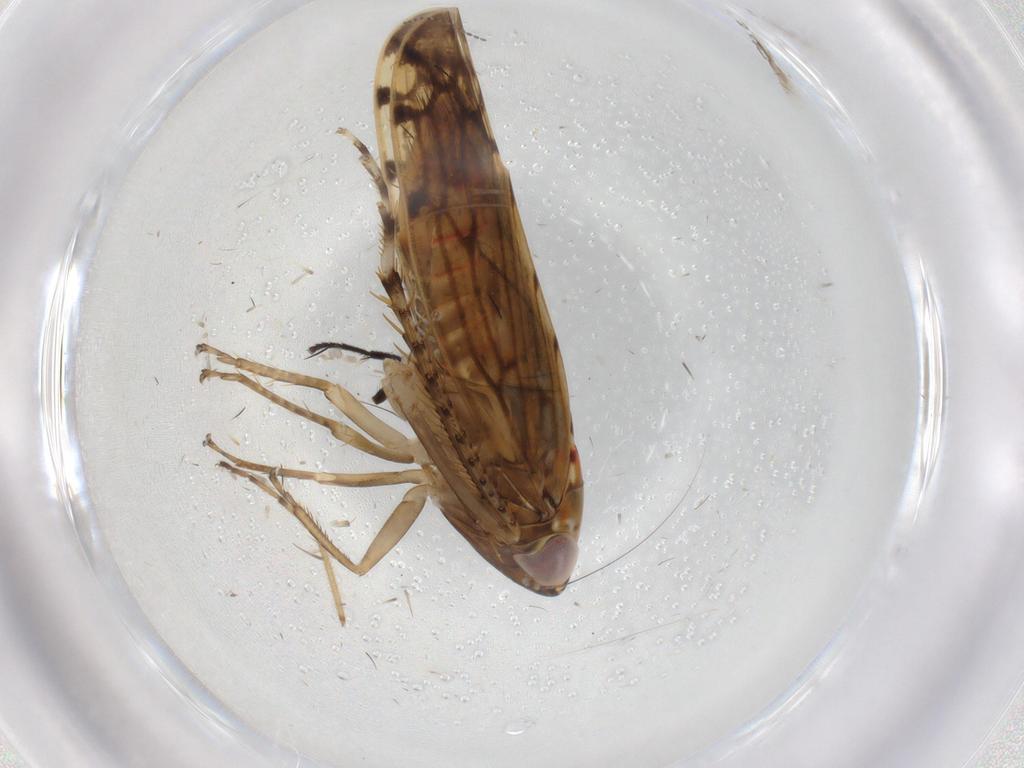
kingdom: Animalia
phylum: Arthropoda
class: Insecta
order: Hemiptera
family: Cicadellidae
